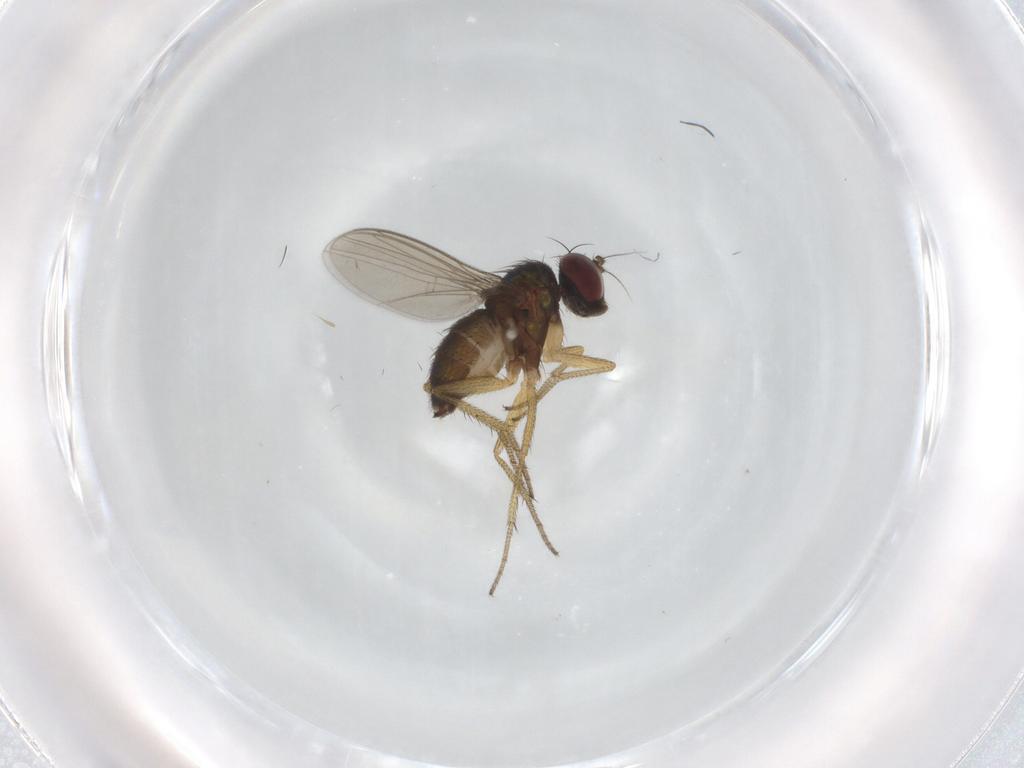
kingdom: Animalia
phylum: Arthropoda
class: Insecta
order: Diptera
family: Dolichopodidae
